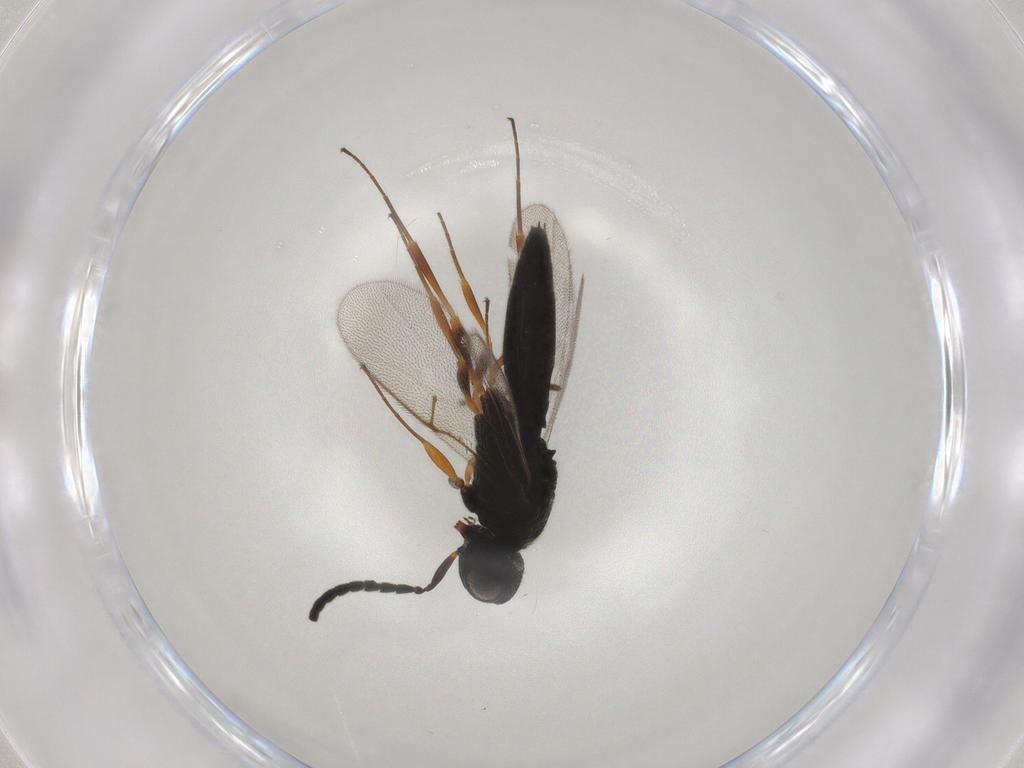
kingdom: Animalia
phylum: Arthropoda
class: Insecta
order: Hymenoptera
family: Scelionidae
